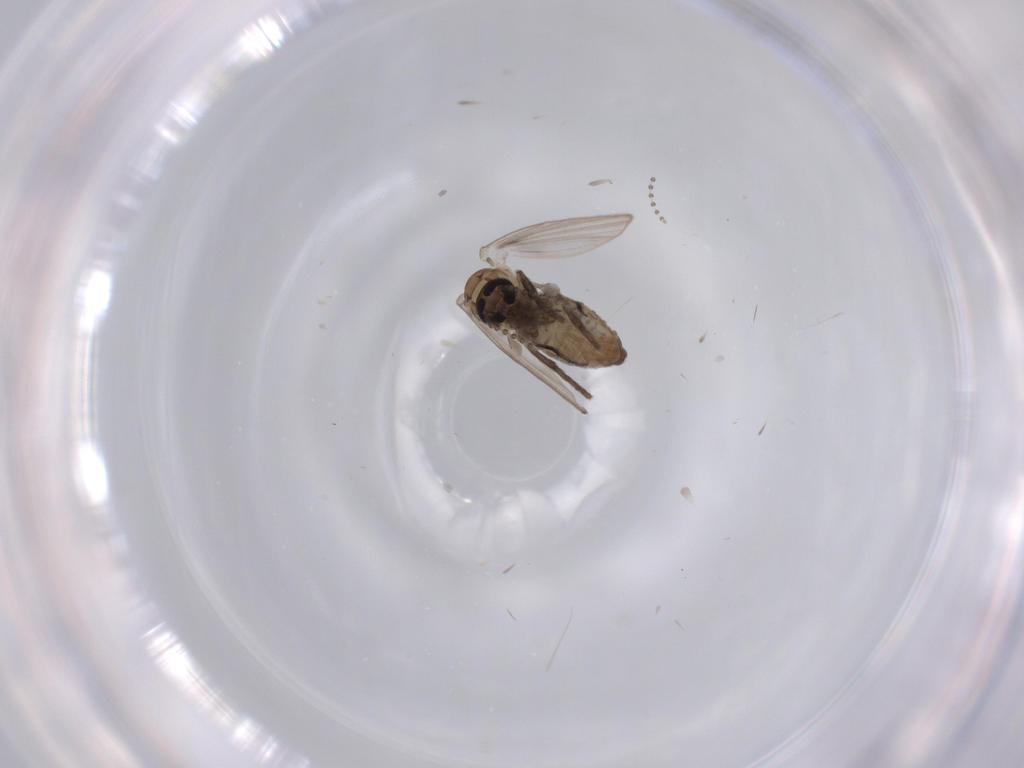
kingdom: Animalia
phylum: Arthropoda
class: Insecta
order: Diptera
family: Psychodidae
